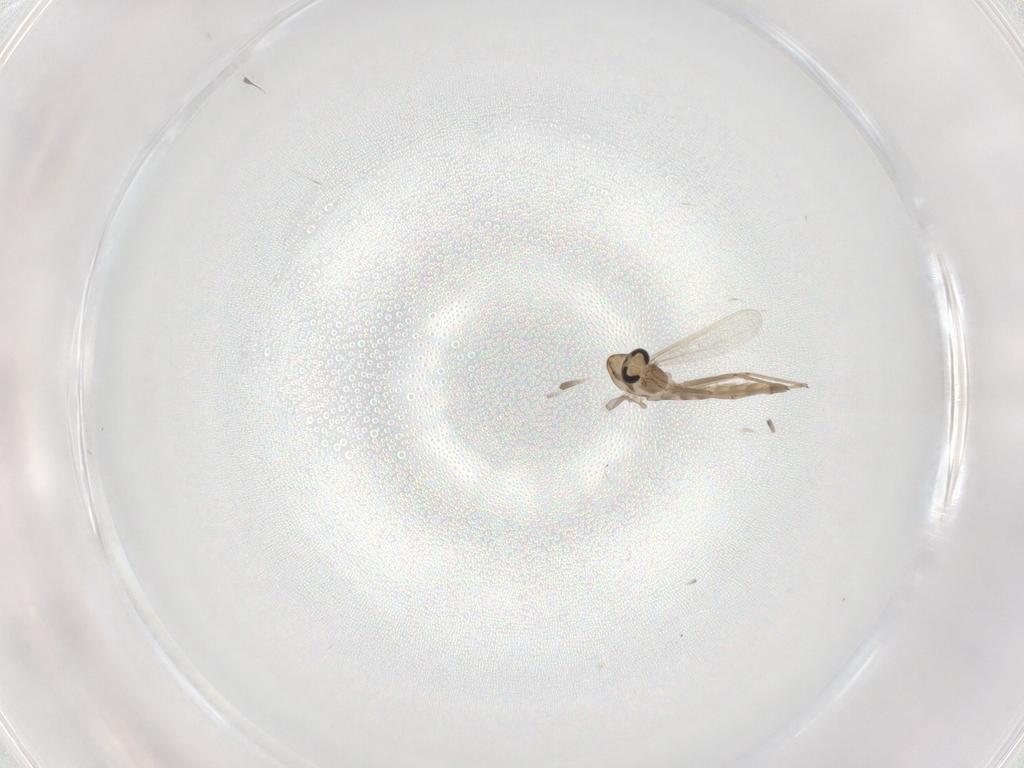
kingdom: Animalia
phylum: Arthropoda
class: Insecta
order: Diptera
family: Chironomidae
